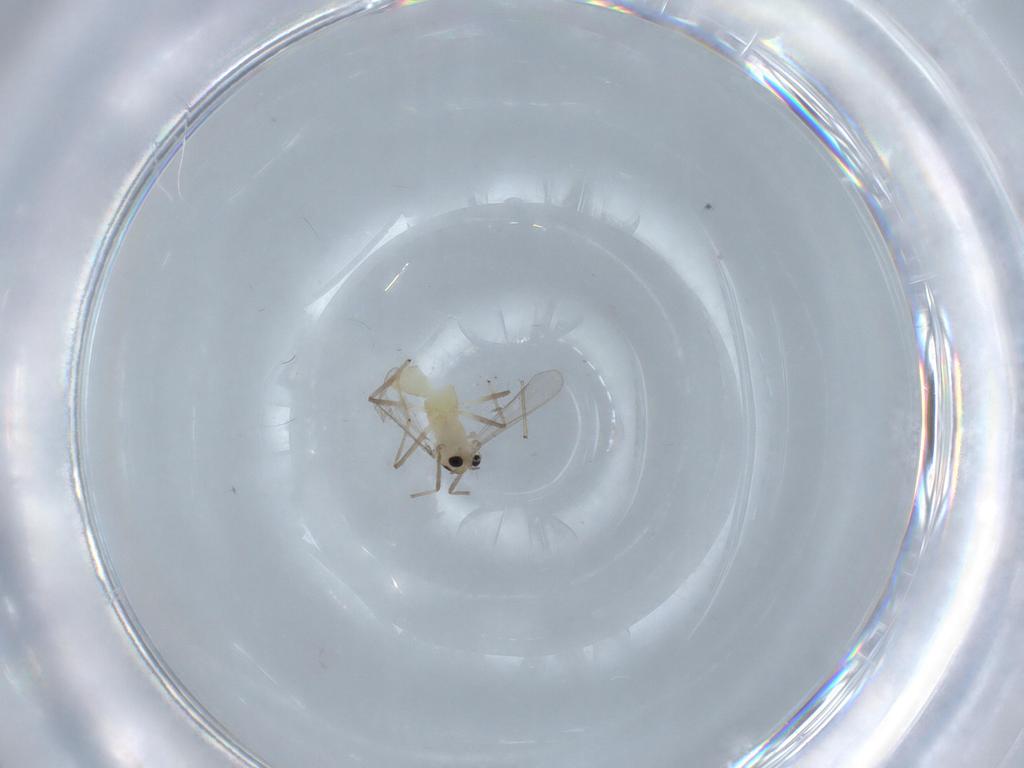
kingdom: Animalia
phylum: Arthropoda
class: Insecta
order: Diptera
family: Chironomidae
